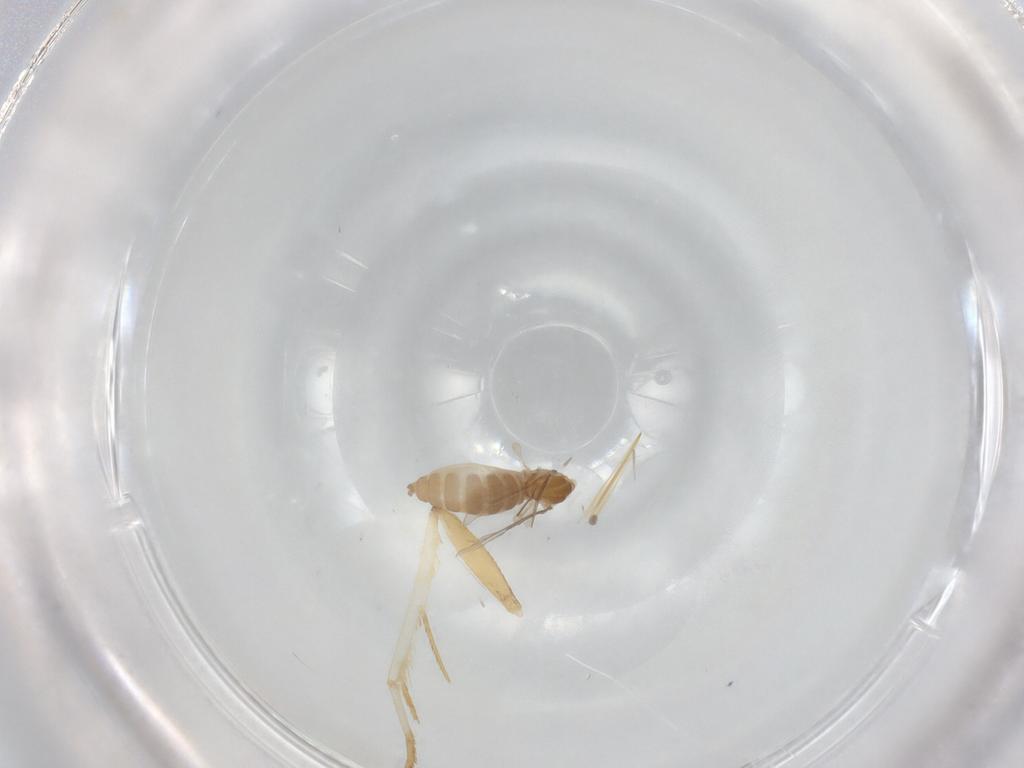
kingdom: Animalia
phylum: Arthropoda
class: Insecta
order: Diptera
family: Cecidomyiidae
